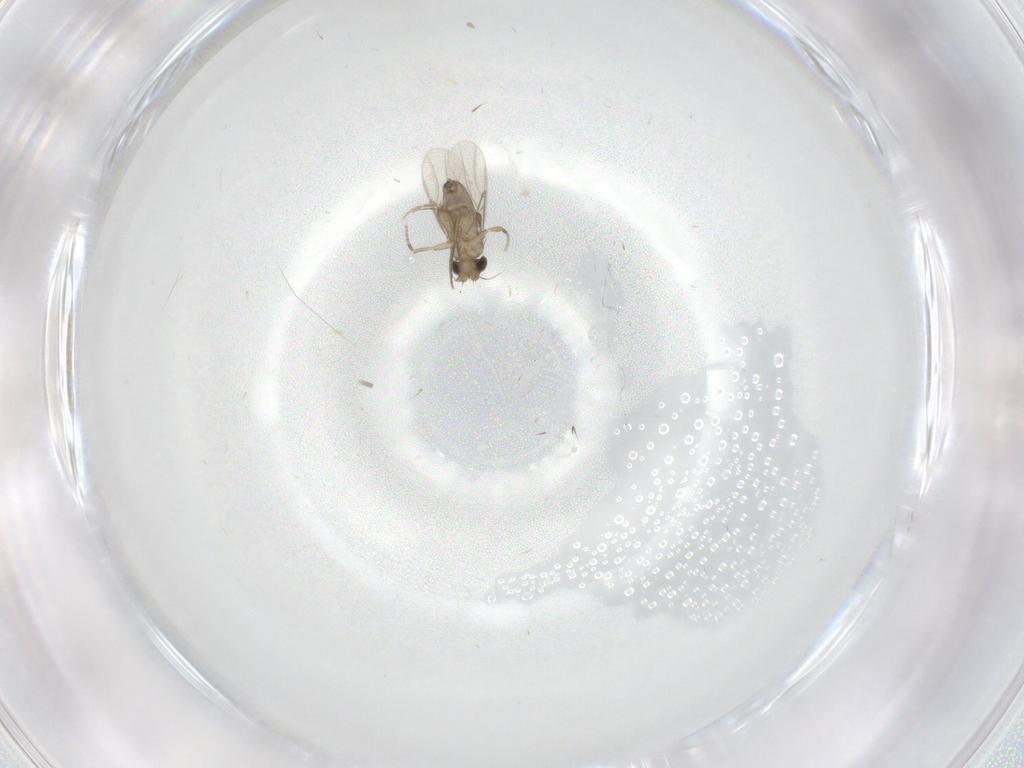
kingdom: Animalia
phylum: Arthropoda
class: Insecta
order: Diptera
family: Phoridae
